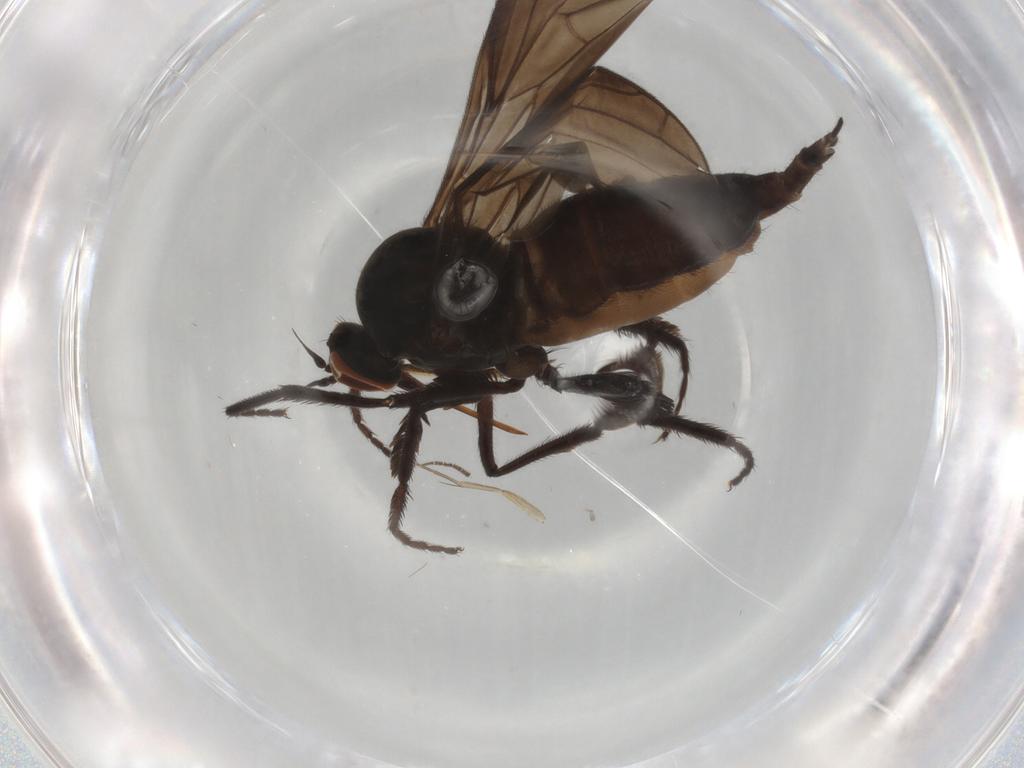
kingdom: Animalia
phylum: Arthropoda
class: Insecta
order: Diptera
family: Empididae
